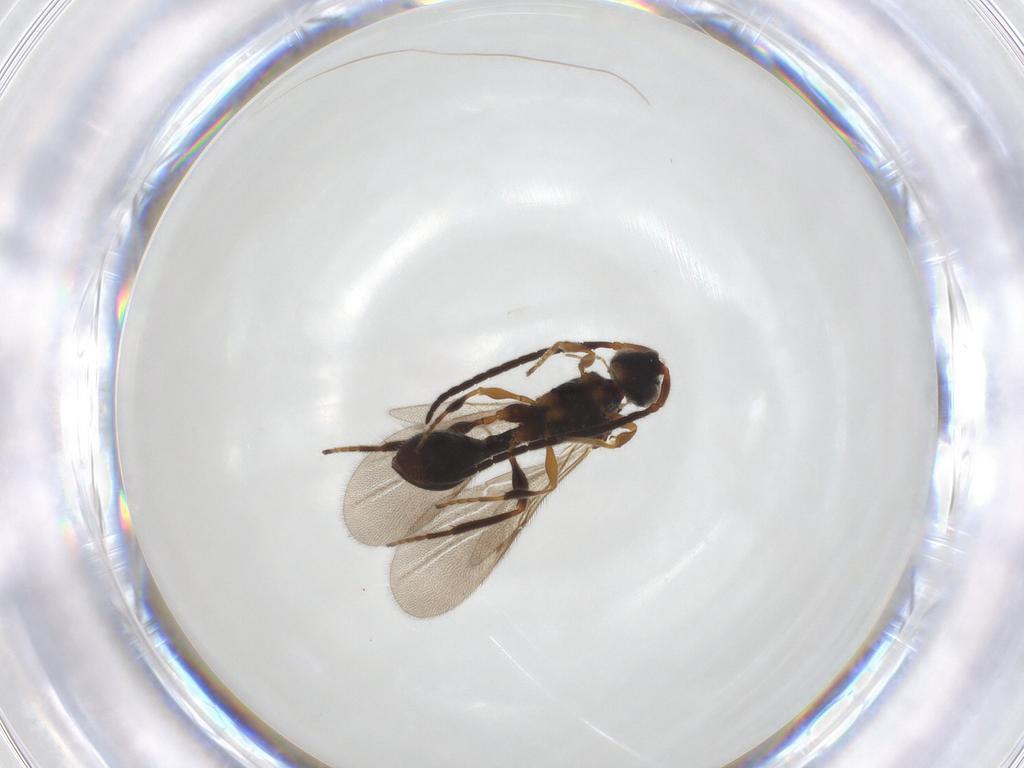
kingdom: Animalia
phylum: Arthropoda
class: Insecta
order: Hymenoptera
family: Diapriidae
